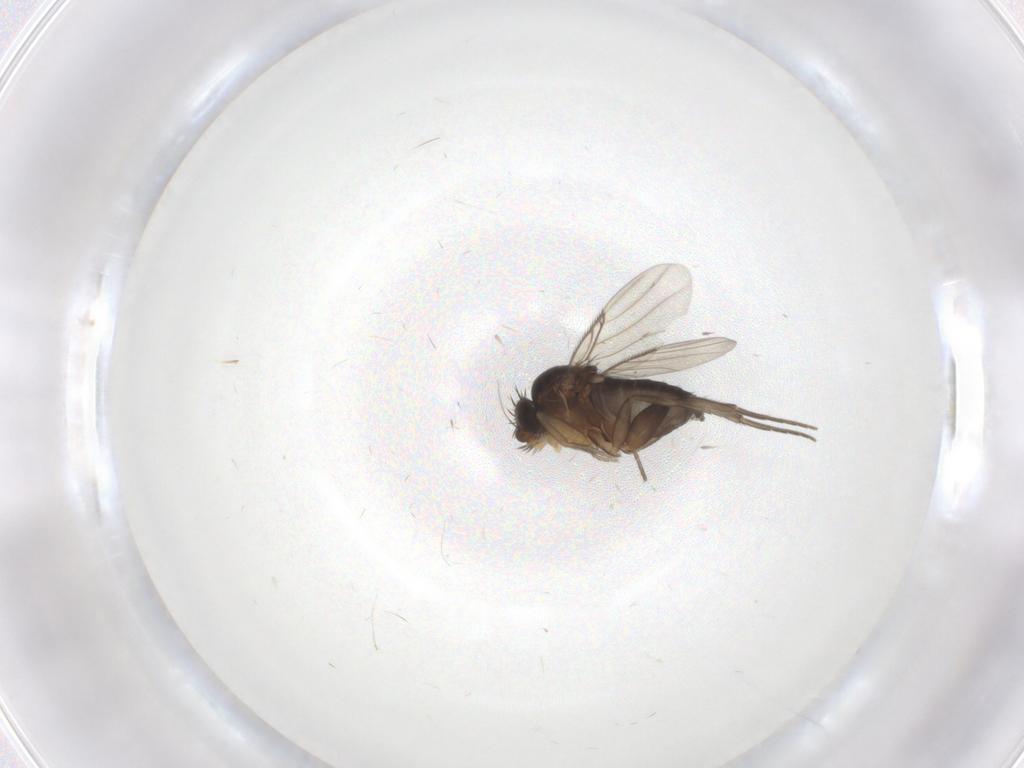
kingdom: Animalia
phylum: Arthropoda
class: Insecta
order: Diptera
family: Phoridae
